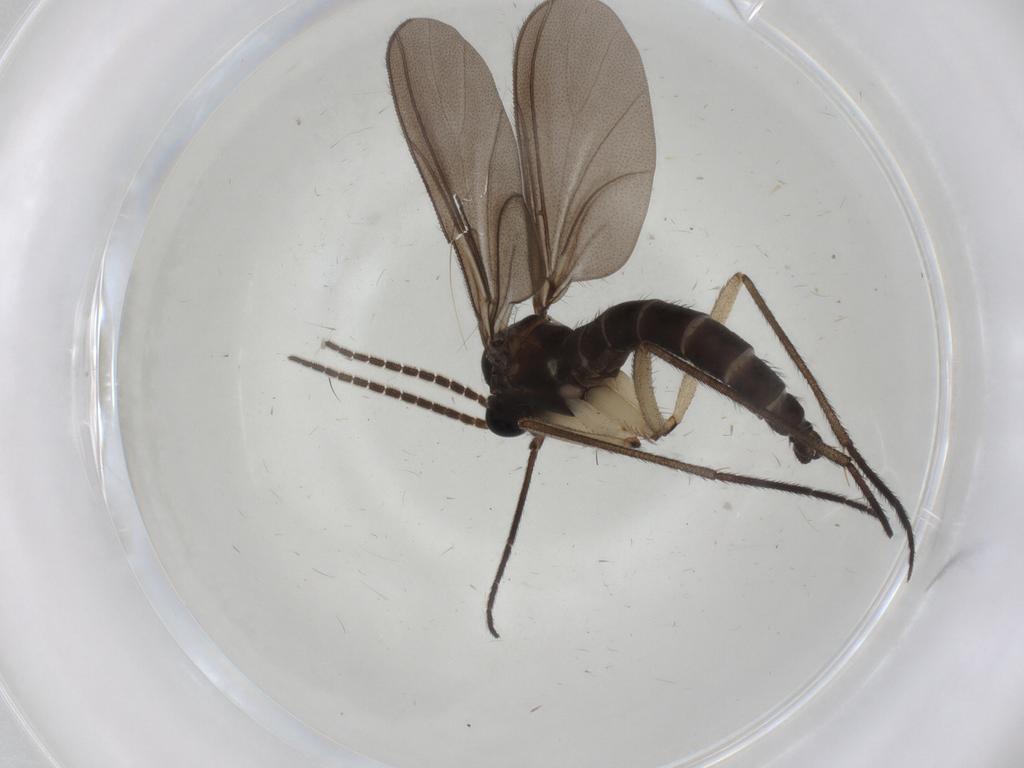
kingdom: Animalia
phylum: Arthropoda
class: Insecta
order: Diptera
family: Sciaridae
